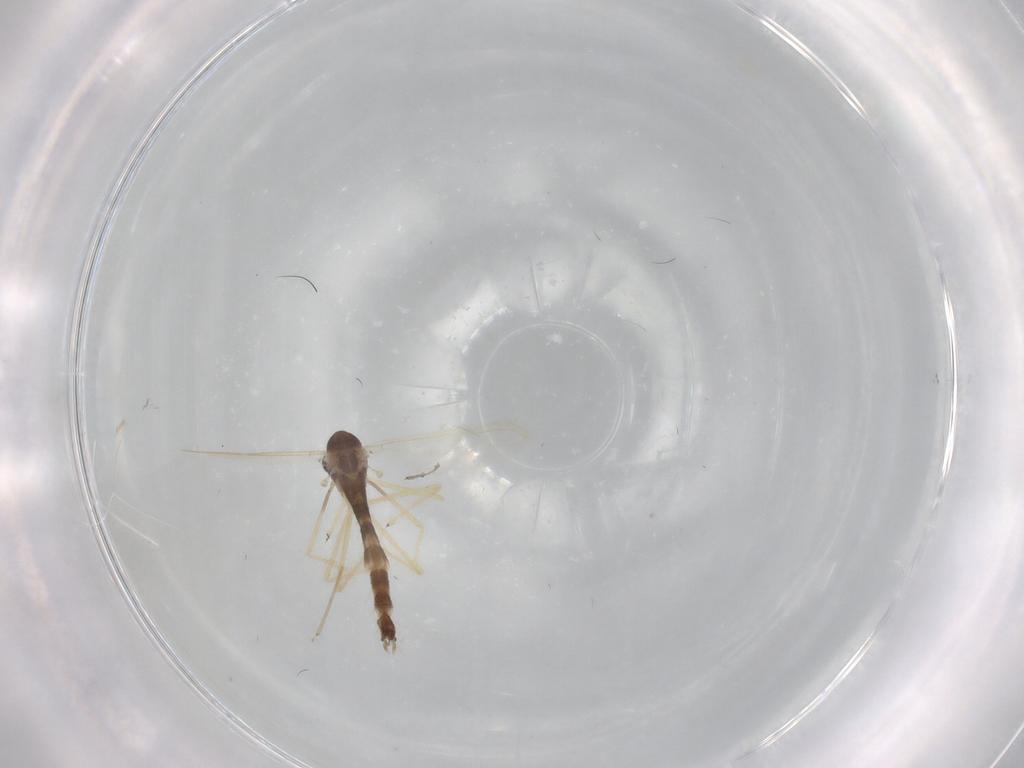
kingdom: Animalia
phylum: Arthropoda
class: Insecta
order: Diptera
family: Chironomidae
